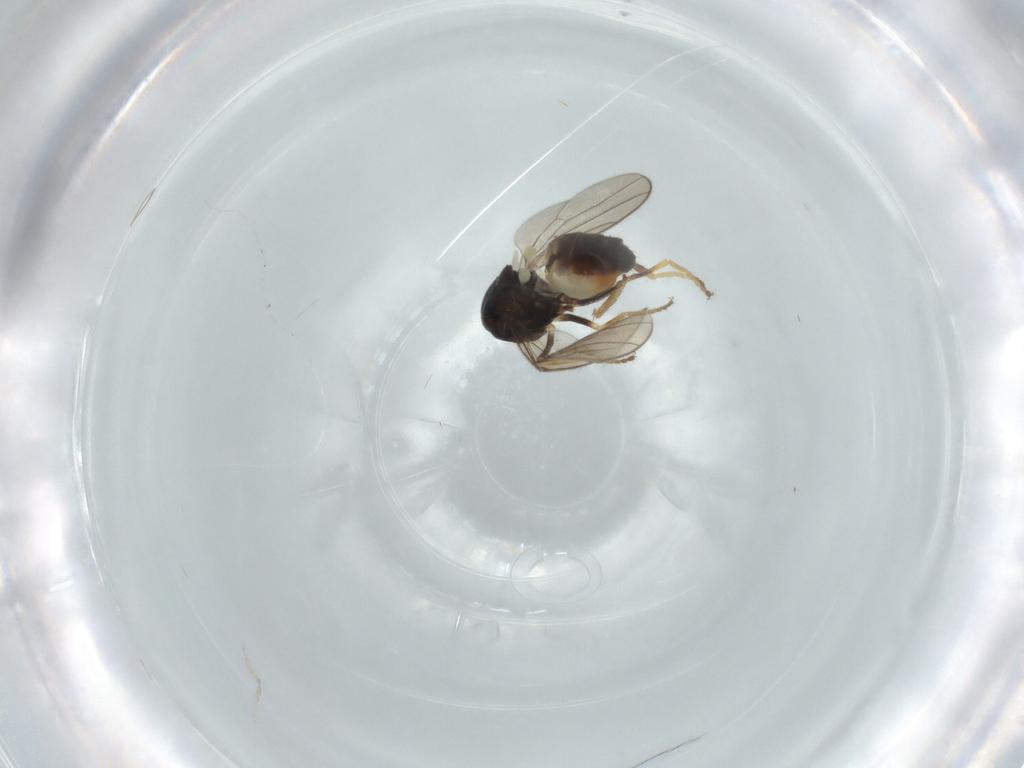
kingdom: Animalia
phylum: Arthropoda
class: Insecta
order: Diptera
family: Chloropidae
